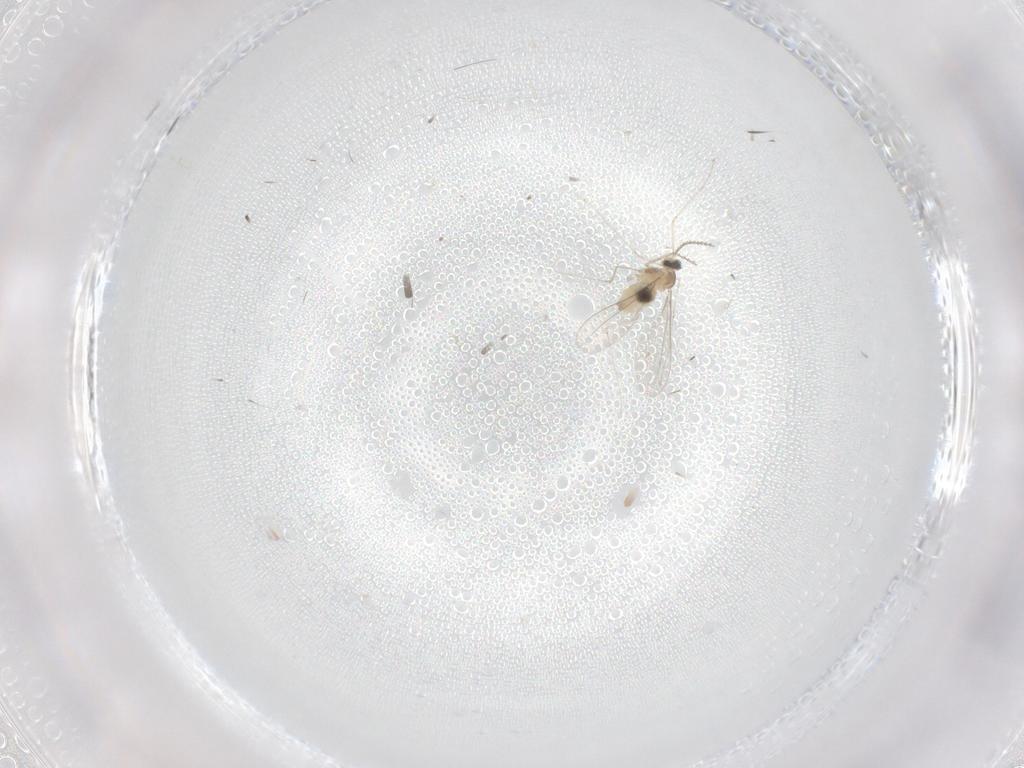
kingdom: Animalia
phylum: Arthropoda
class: Insecta
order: Diptera
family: Cecidomyiidae
